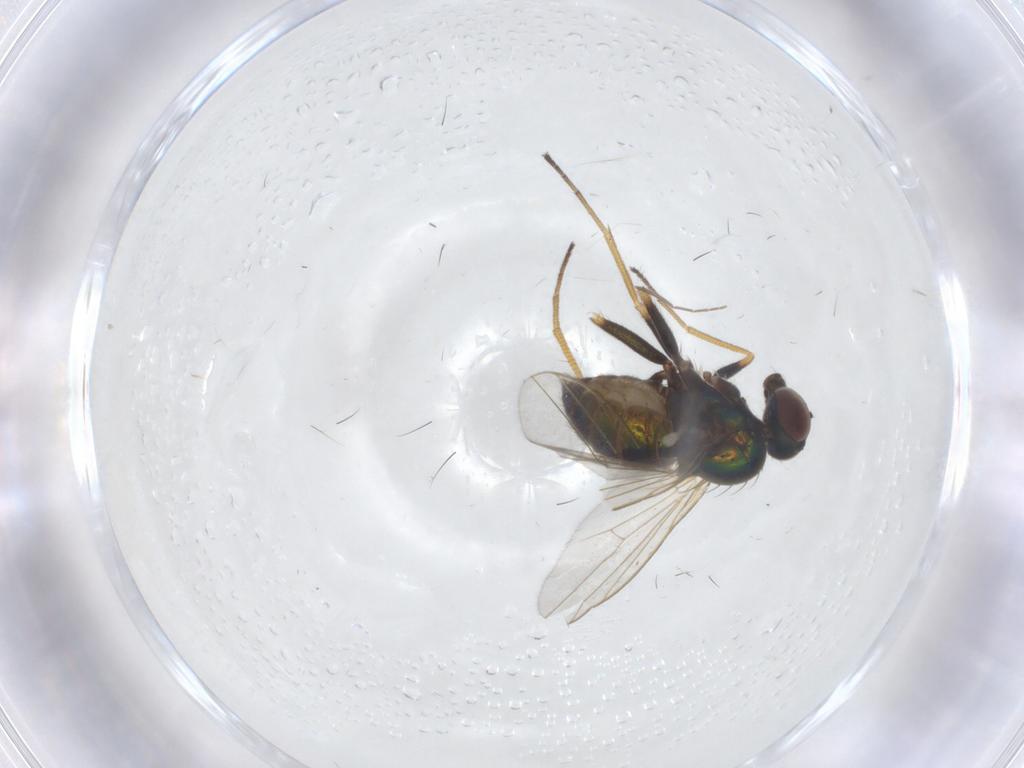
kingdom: Animalia
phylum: Arthropoda
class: Insecta
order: Diptera
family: Dolichopodidae
